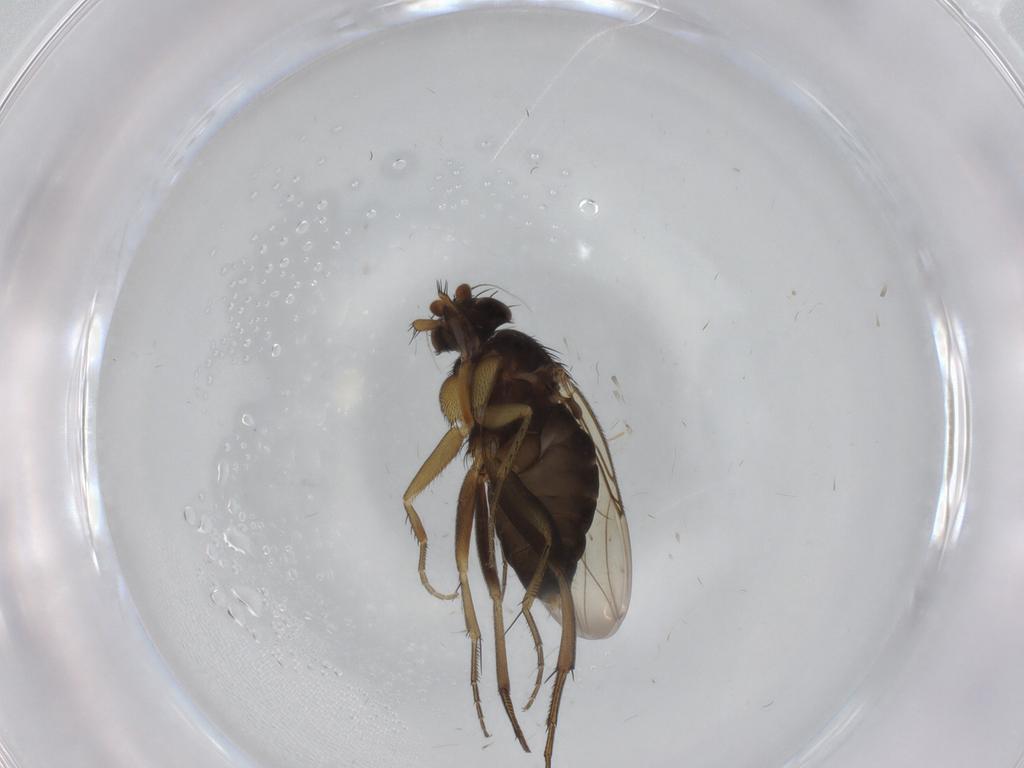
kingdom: Animalia
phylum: Arthropoda
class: Insecta
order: Diptera
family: Phoridae
